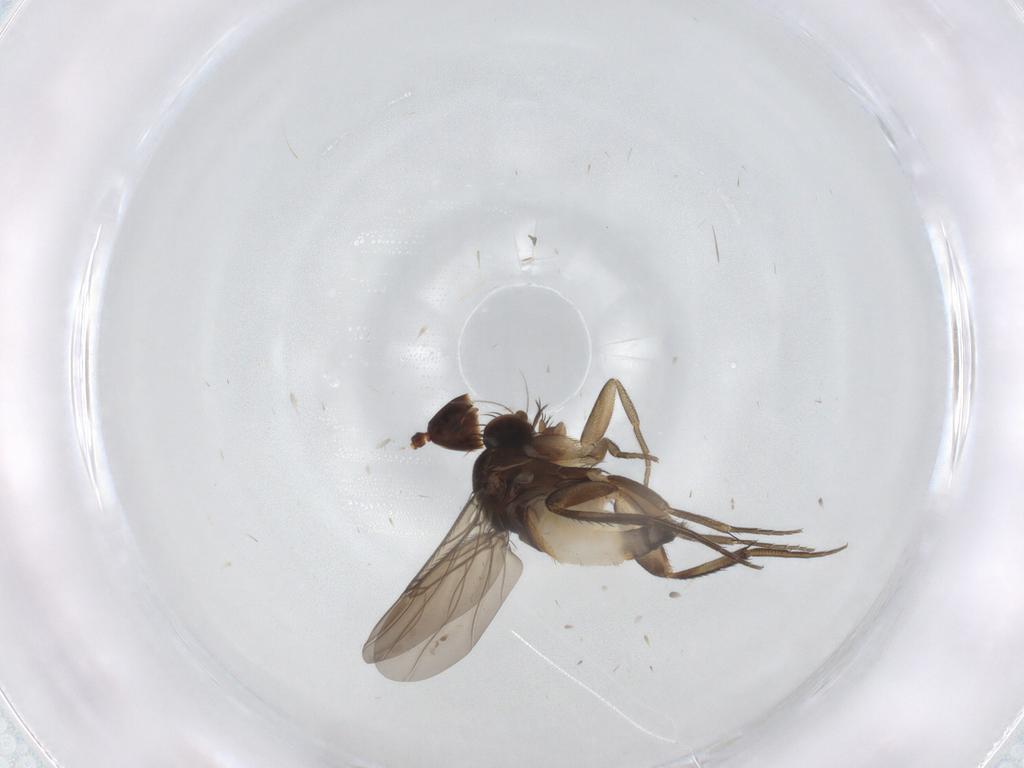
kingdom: Animalia
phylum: Arthropoda
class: Insecta
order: Diptera
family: Phoridae
